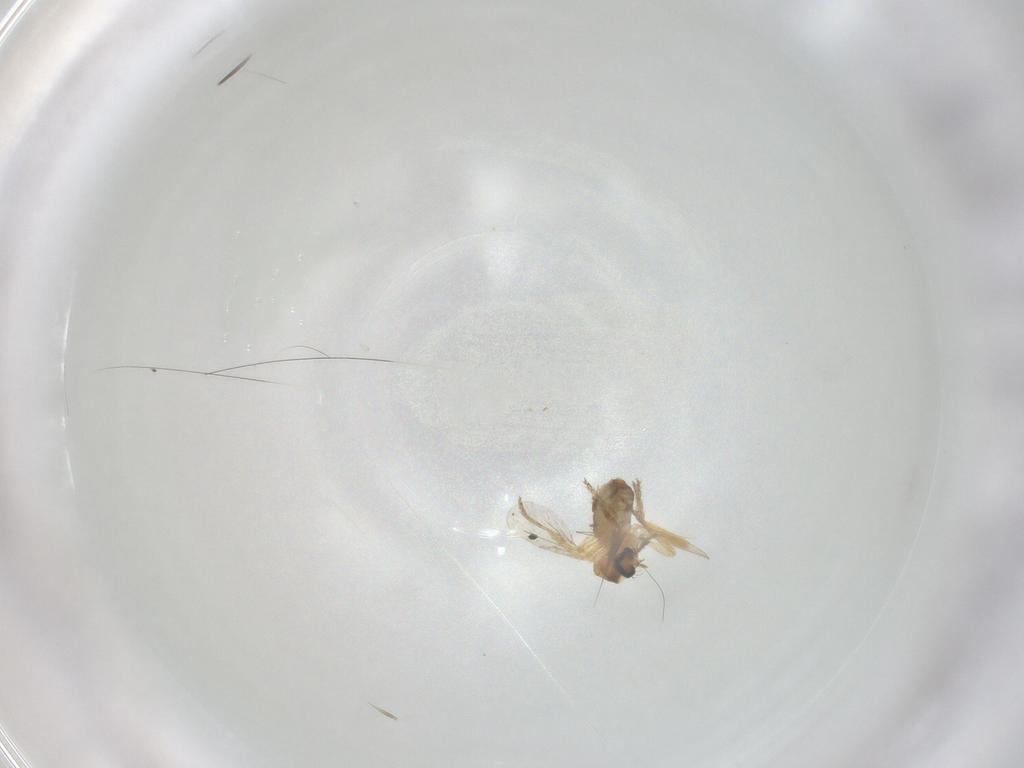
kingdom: Animalia
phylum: Arthropoda
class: Insecta
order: Diptera
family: Ceratopogonidae
